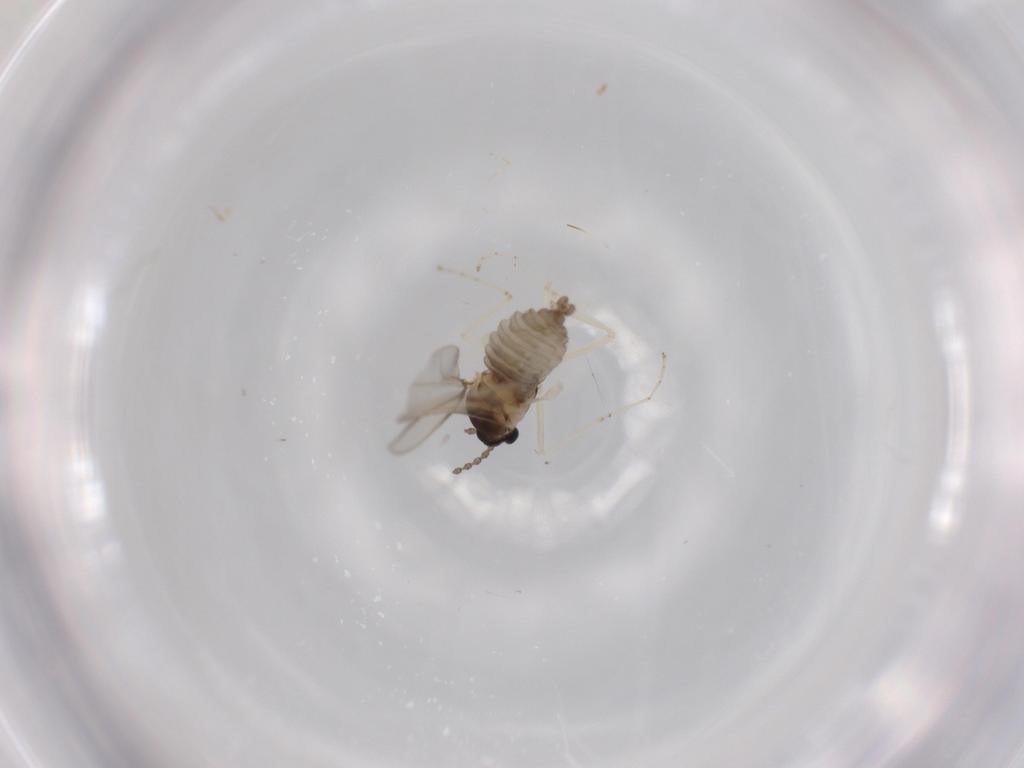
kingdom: Animalia
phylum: Arthropoda
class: Insecta
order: Diptera
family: Cecidomyiidae
